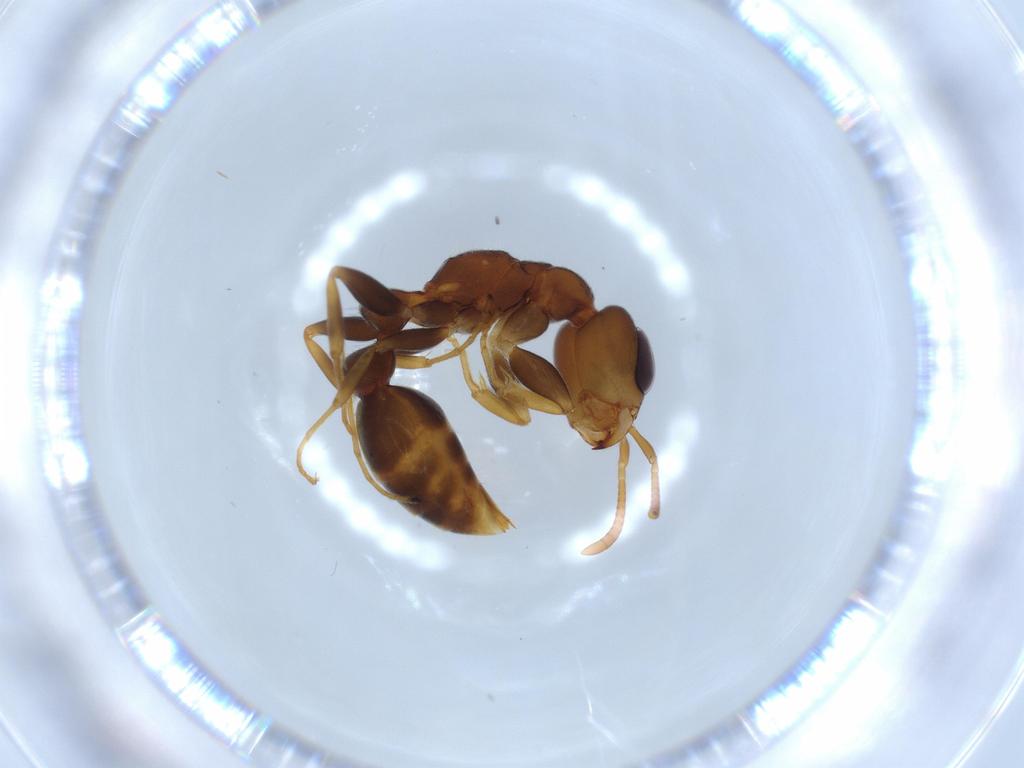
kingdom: Animalia
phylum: Arthropoda
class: Insecta
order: Hymenoptera
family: Formicidae
